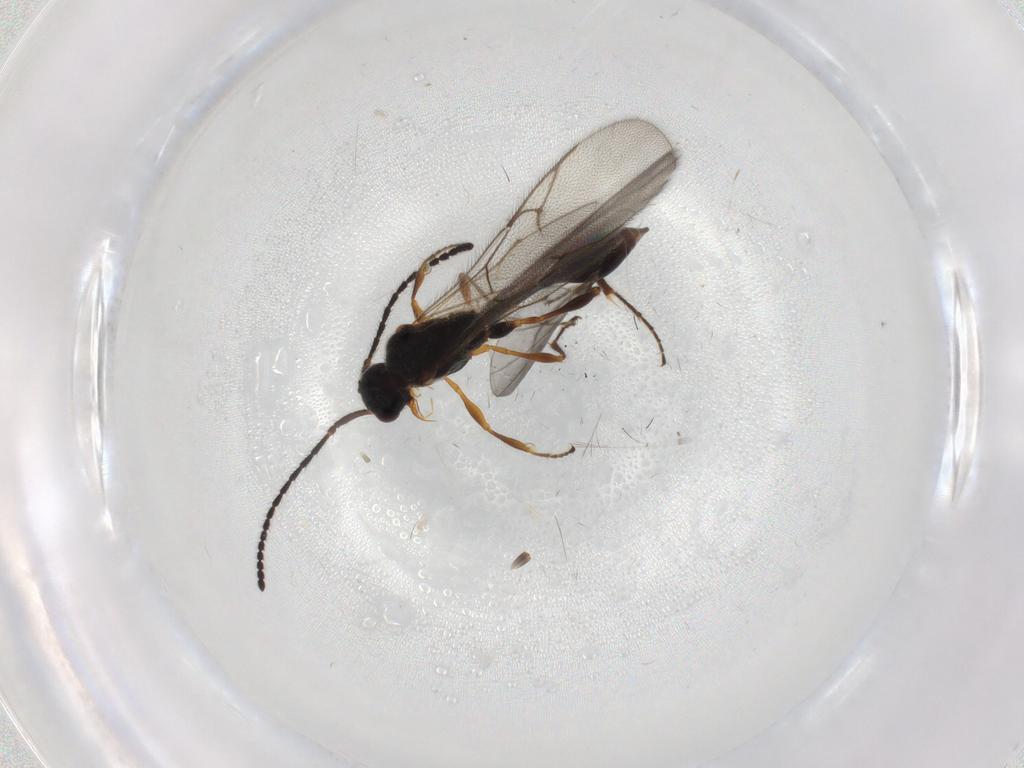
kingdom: Animalia
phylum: Arthropoda
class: Insecta
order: Hymenoptera
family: Diapriidae
